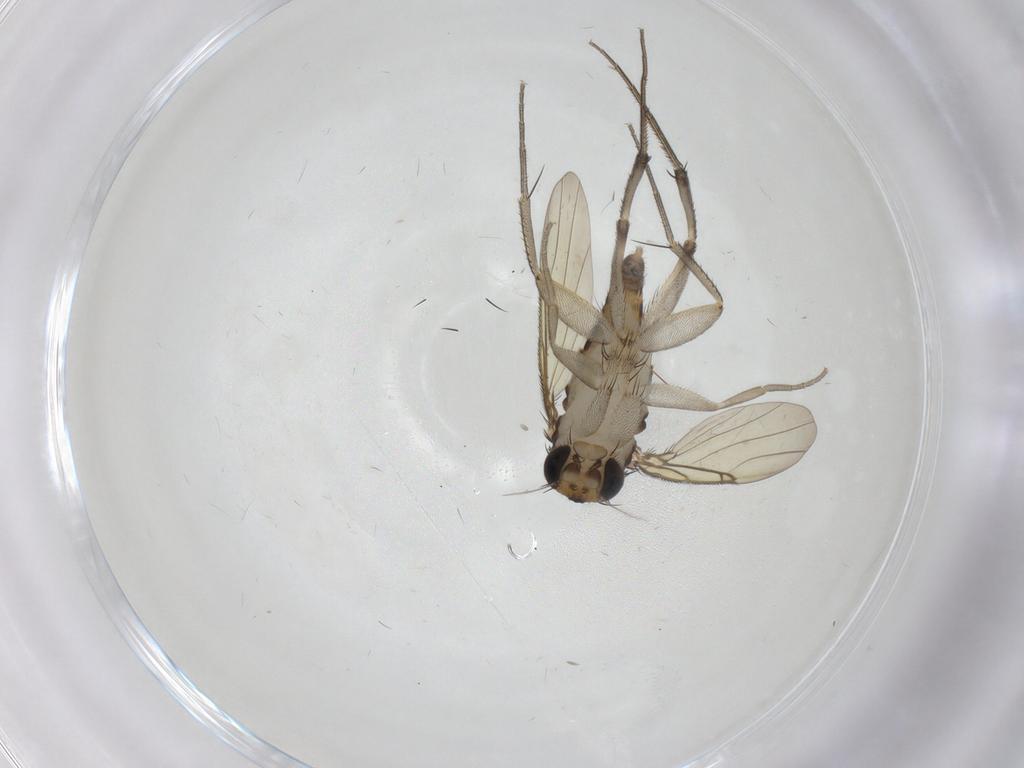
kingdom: Animalia
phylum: Arthropoda
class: Insecta
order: Diptera
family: Phoridae
